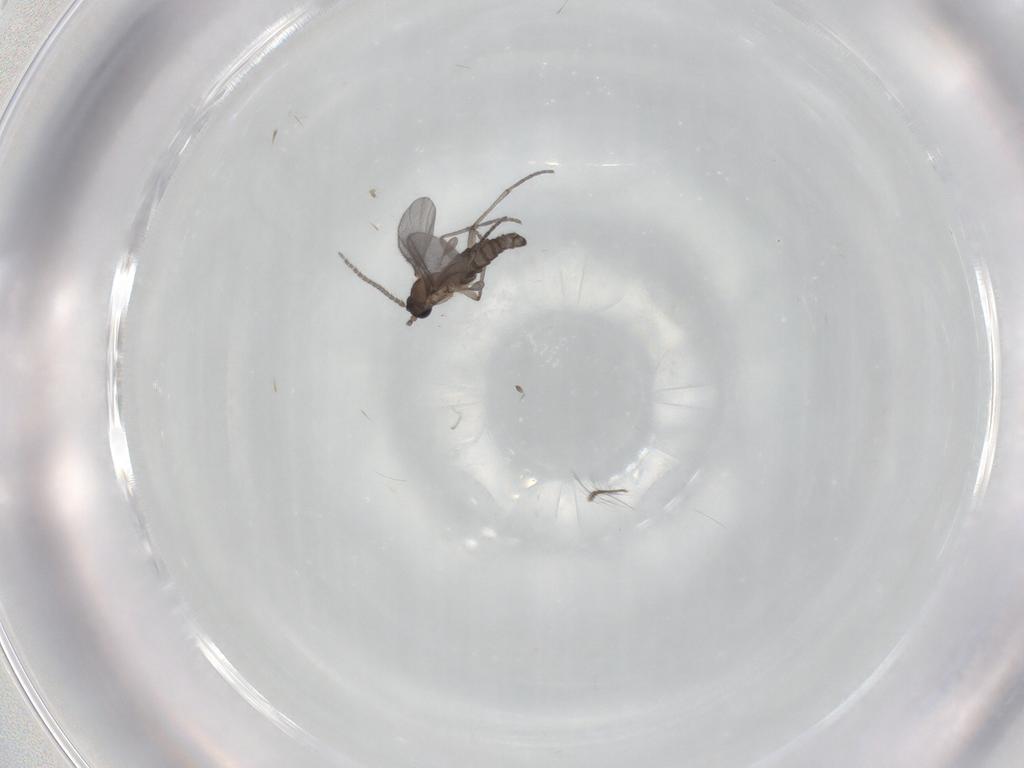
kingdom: Animalia
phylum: Arthropoda
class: Insecta
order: Diptera
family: Sciaridae
